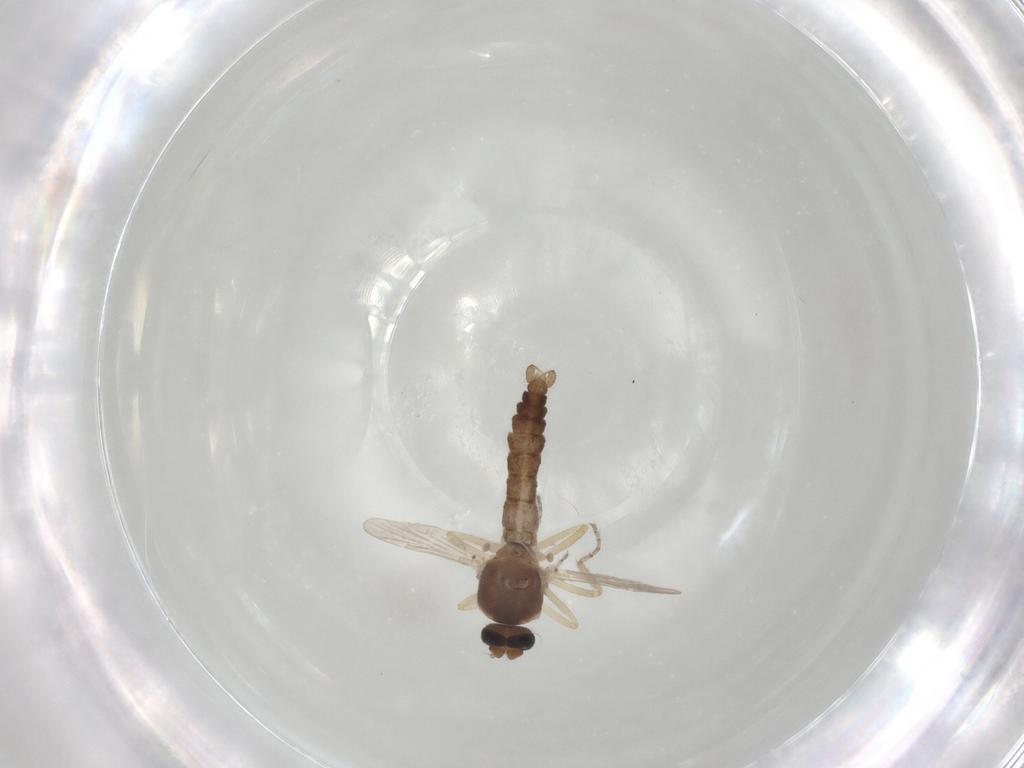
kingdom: Animalia
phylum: Arthropoda
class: Insecta
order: Diptera
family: Ceratopogonidae
